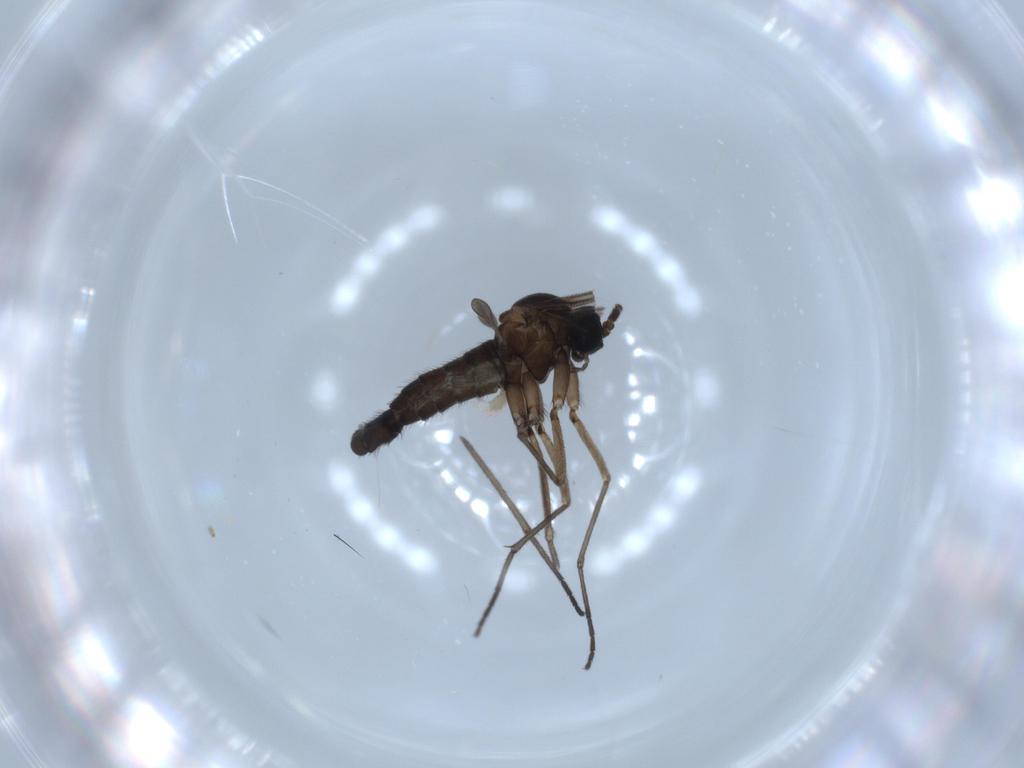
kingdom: Animalia
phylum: Arthropoda
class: Insecta
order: Diptera
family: Sciaridae
